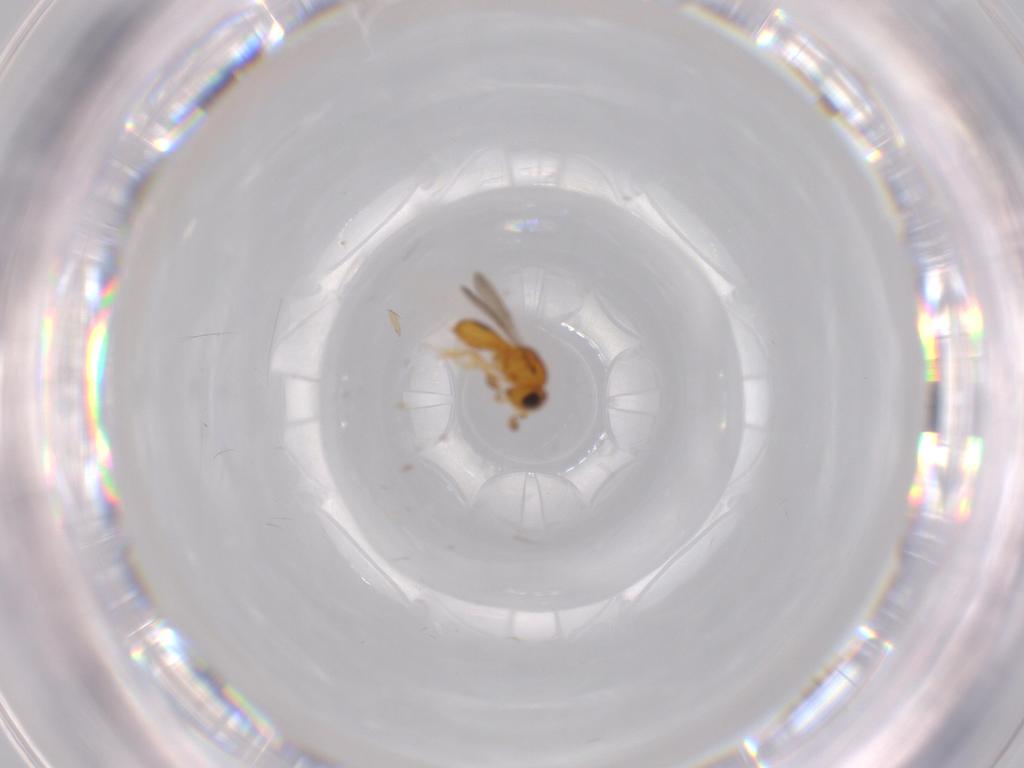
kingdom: Animalia
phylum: Arthropoda
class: Insecta
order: Hymenoptera
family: Scelionidae
